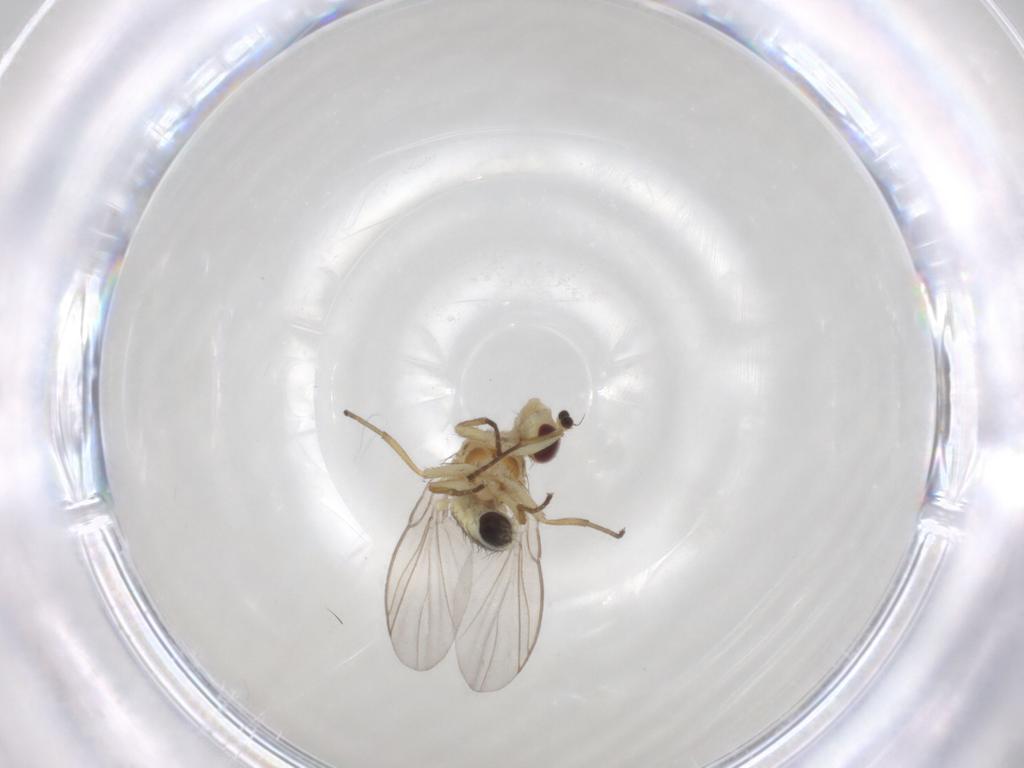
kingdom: Animalia
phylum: Arthropoda
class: Insecta
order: Diptera
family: Agromyzidae
